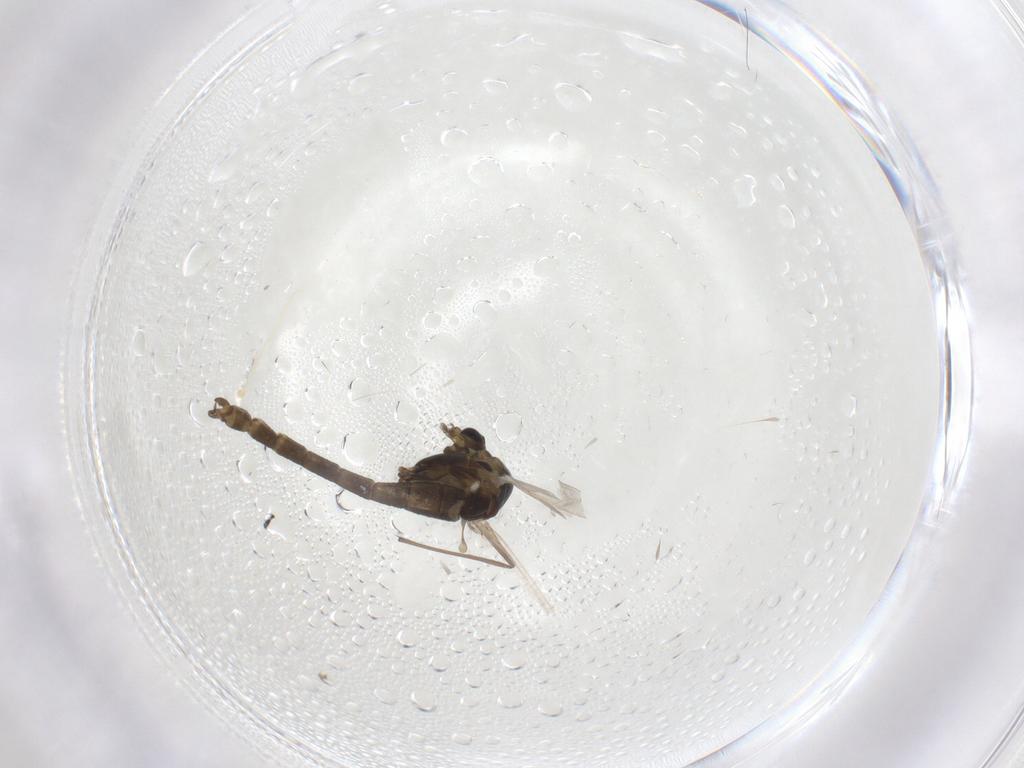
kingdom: Animalia
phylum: Arthropoda
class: Insecta
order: Diptera
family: Chironomidae
